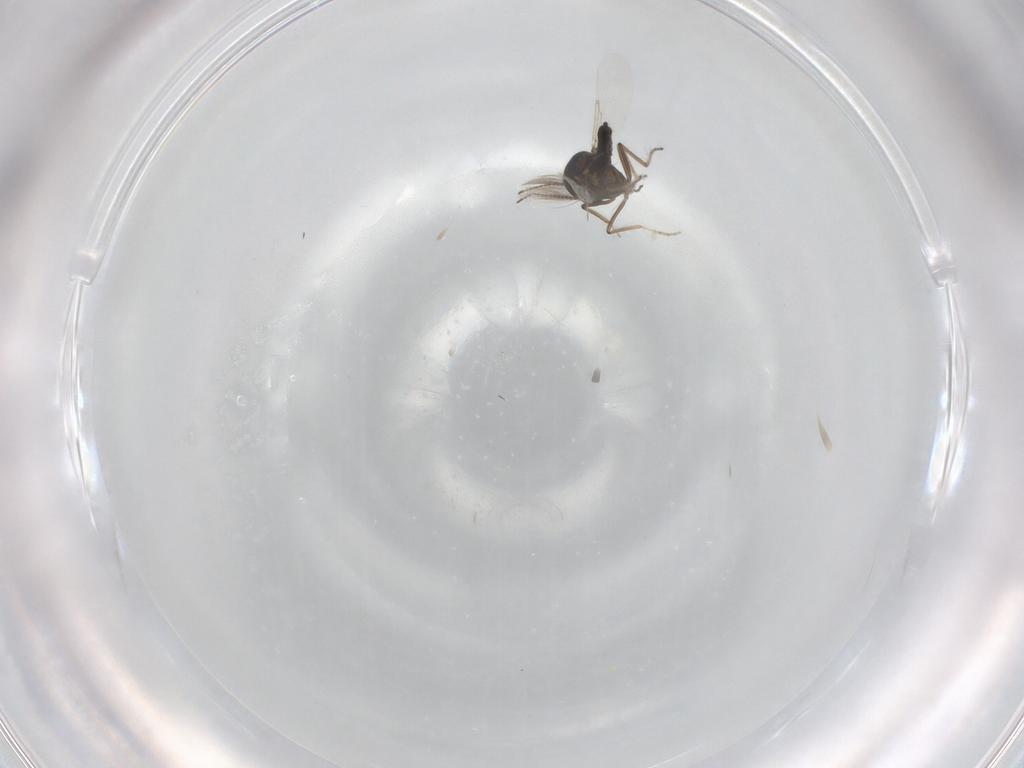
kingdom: Animalia
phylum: Arthropoda
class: Insecta
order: Diptera
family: Ceratopogonidae
